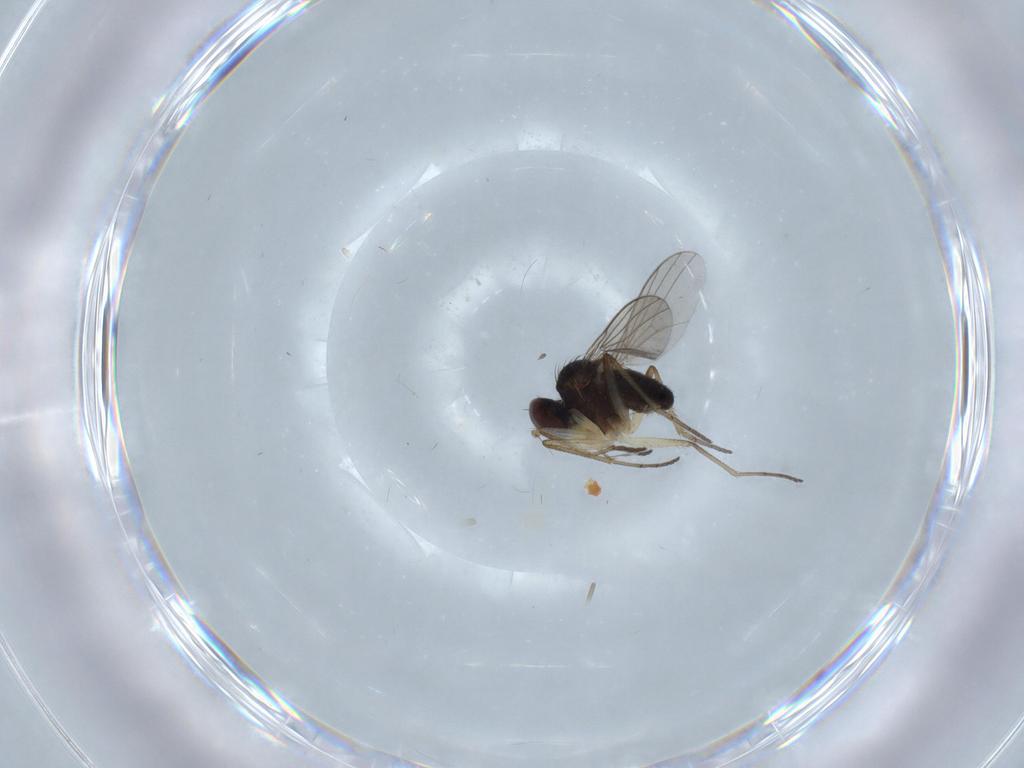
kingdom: Animalia
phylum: Arthropoda
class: Insecta
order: Diptera
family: Dolichopodidae
